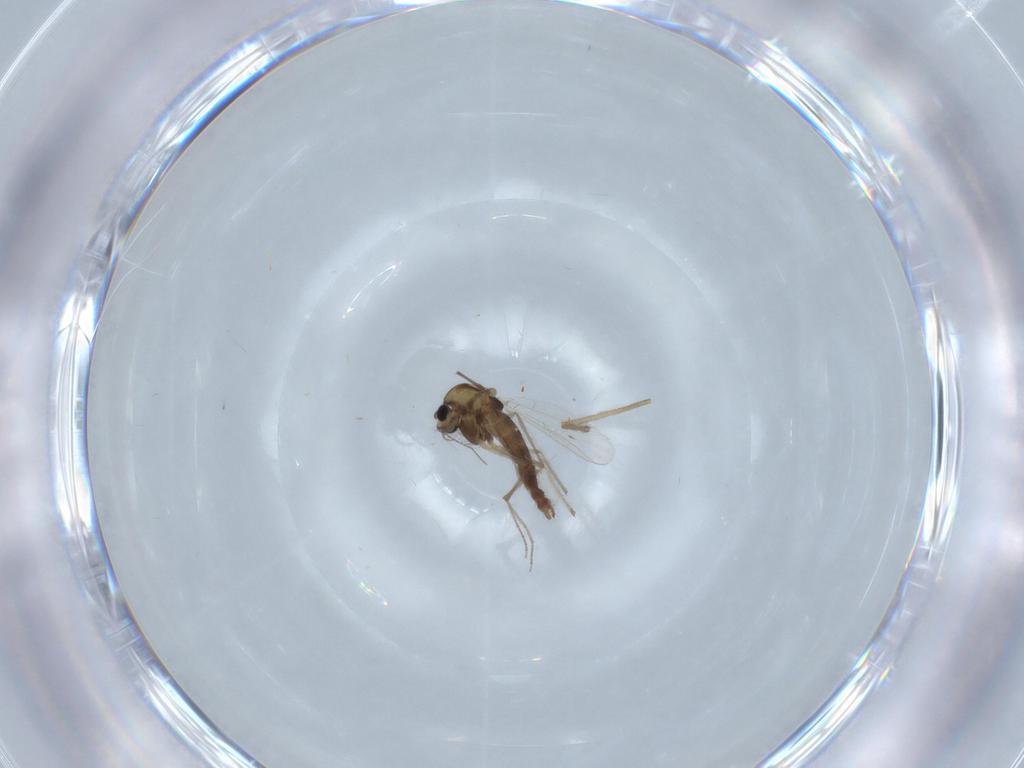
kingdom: Animalia
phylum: Arthropoda
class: Insecta
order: Diptera
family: Chironomidae
